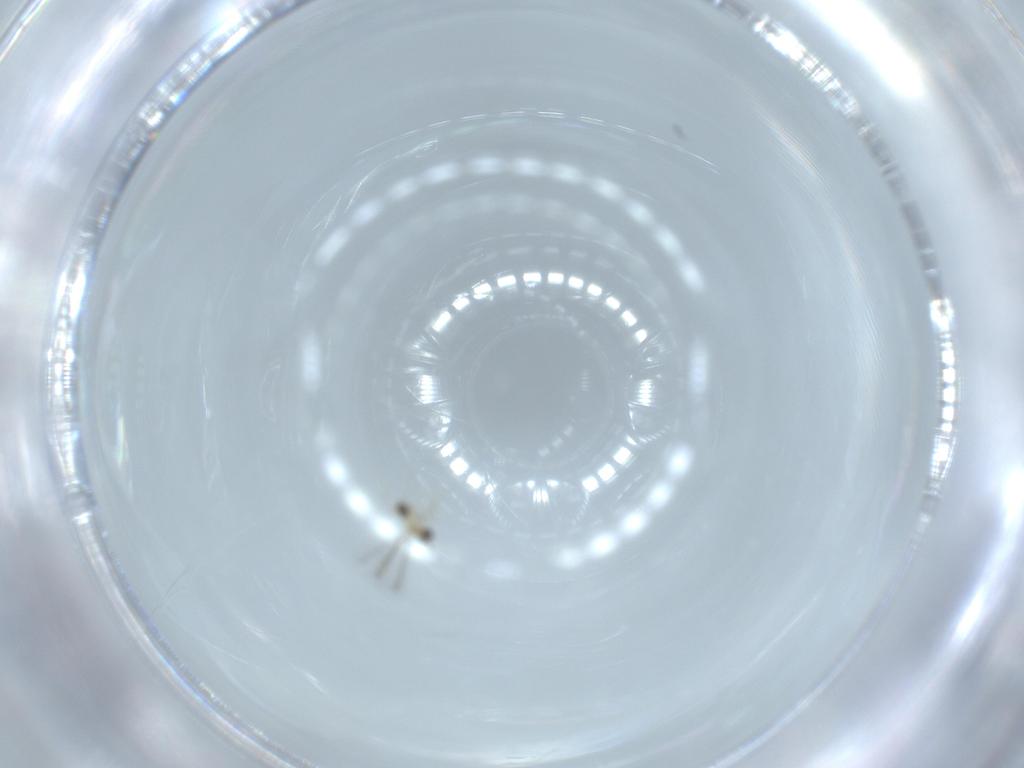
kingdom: Animalia
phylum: Arthropoda
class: Insecta
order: Hymenoptera
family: Mymaridae
